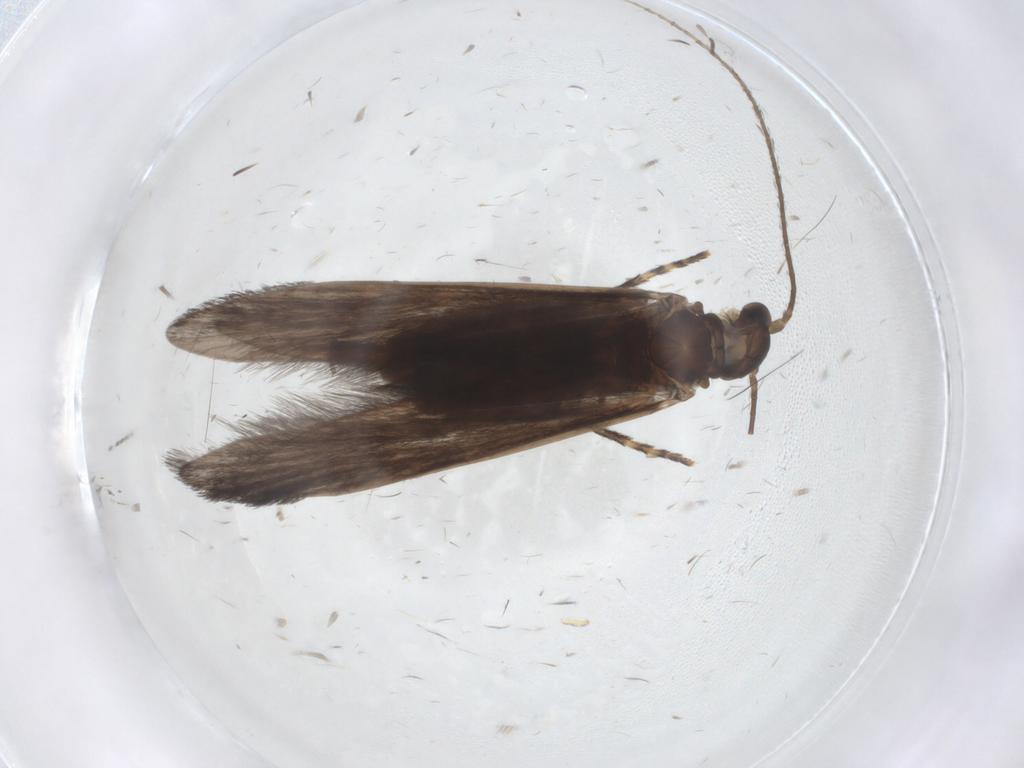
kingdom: Animalia
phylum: Arthropoda
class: Insecta
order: Trichoptera
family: Xiphocentronidae
